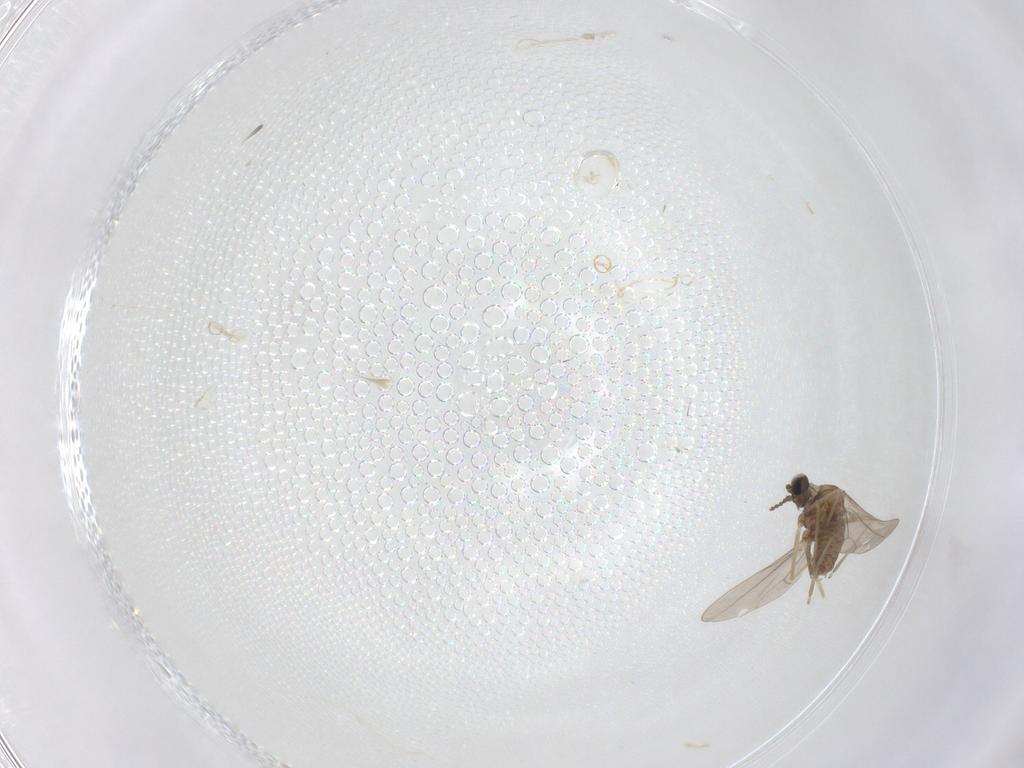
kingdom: Animalia
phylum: Arthropoda
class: Insecta
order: Diptera
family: Cecidomyiidae
